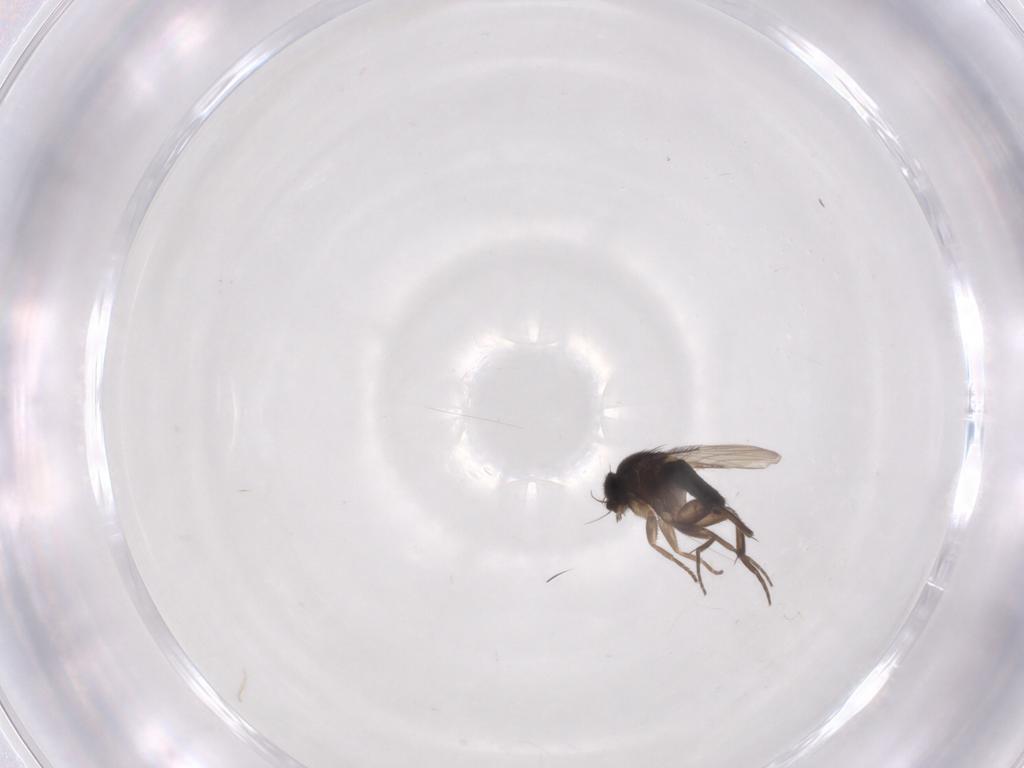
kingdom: Animalia
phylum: Arthropoda
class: Insecta
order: Diptera
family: Phoridae
